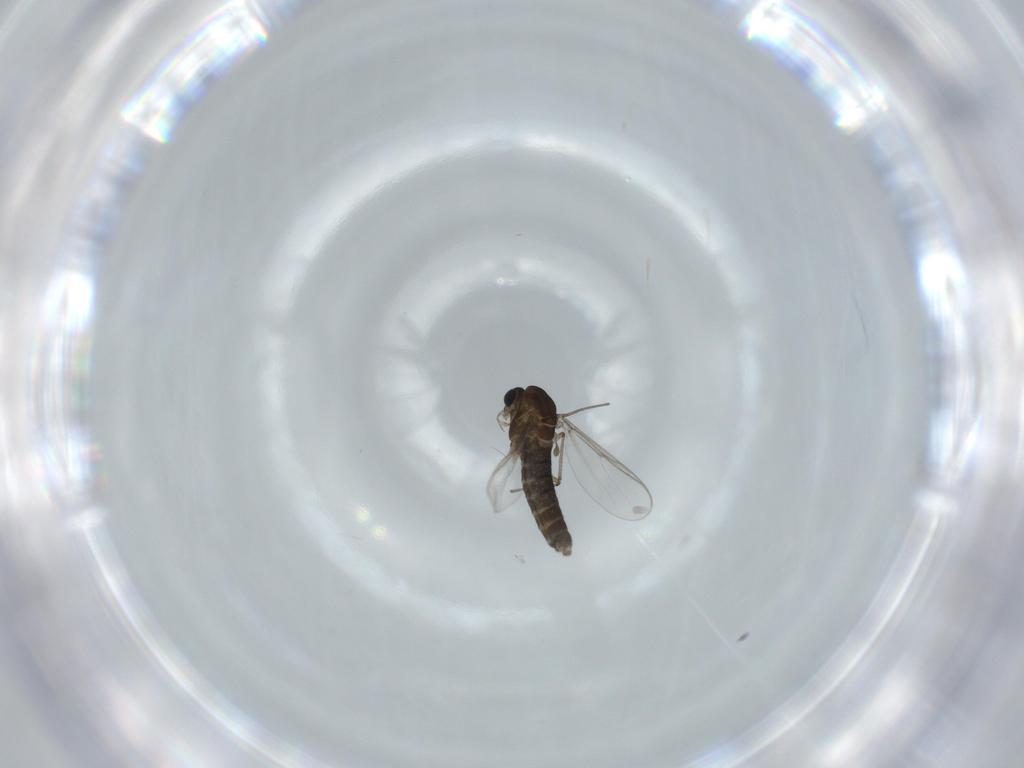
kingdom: Animalia
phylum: Arthropoda
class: Insecta
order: Diptera
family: Chironomidae
